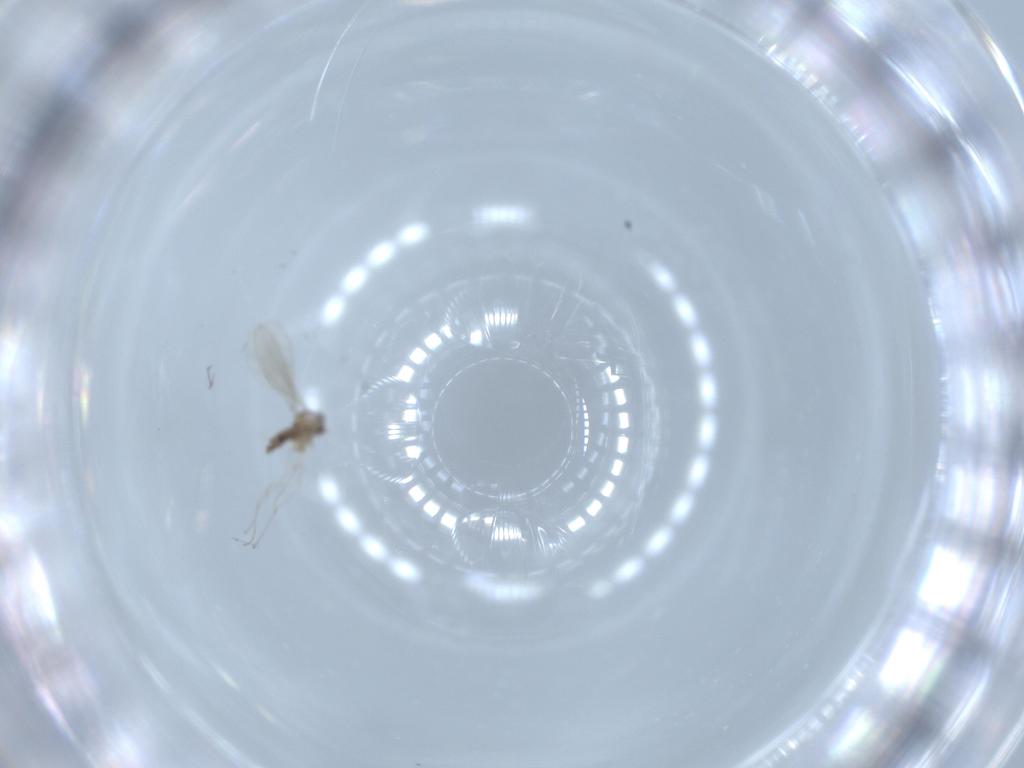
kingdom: Animalia
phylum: Arthropoda
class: Insecta
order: Diptera
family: Cecidomyiidae
